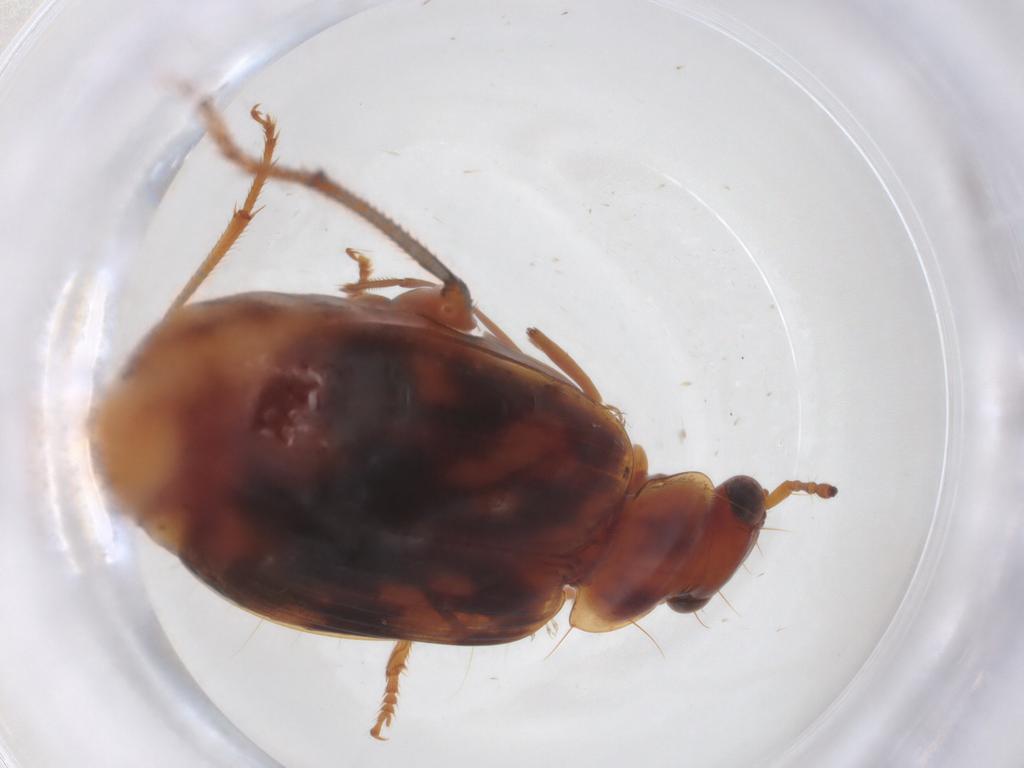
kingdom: Animalia
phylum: Arthropoda
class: Insecta
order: Coleoptera
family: Carabidae
